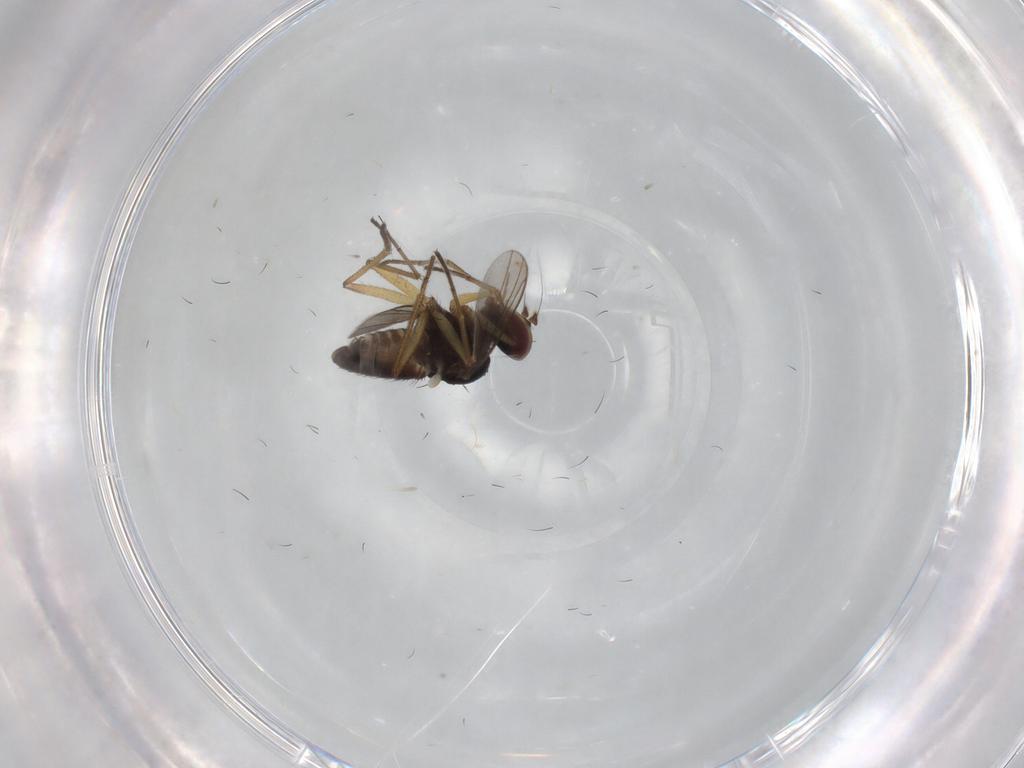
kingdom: Animalia
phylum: Arthropoda
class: Insecta
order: Diptera
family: Dolichopodidae
